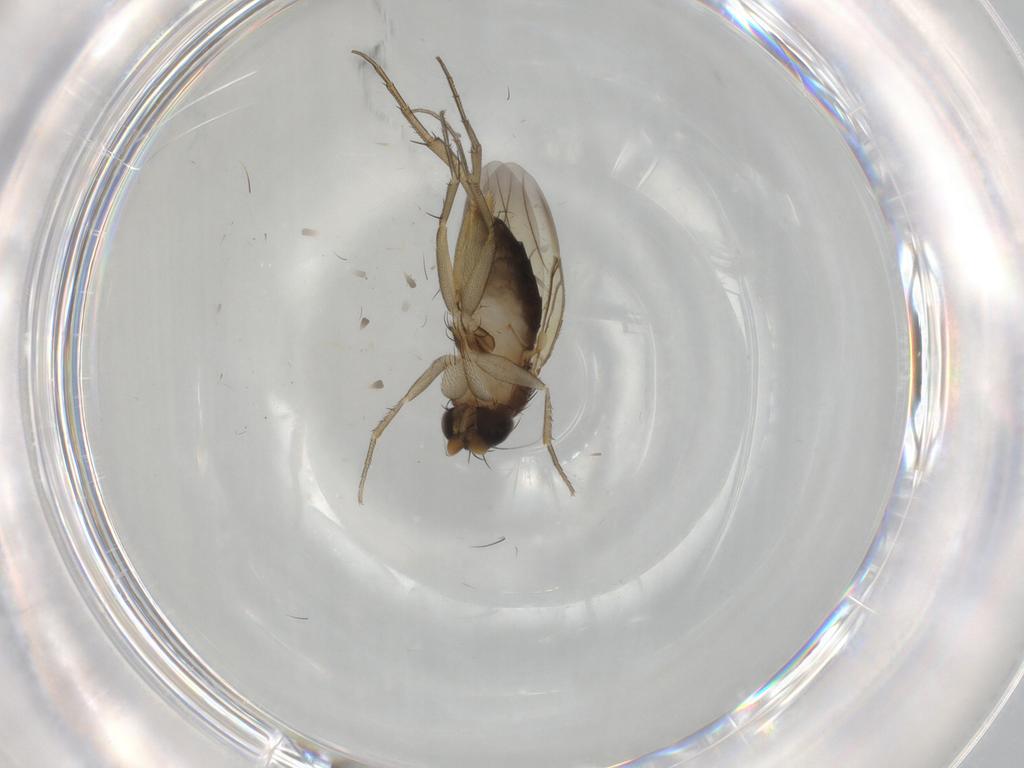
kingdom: Animalia
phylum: Arthropoda
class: Insecta
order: Diptera
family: Phoridae
